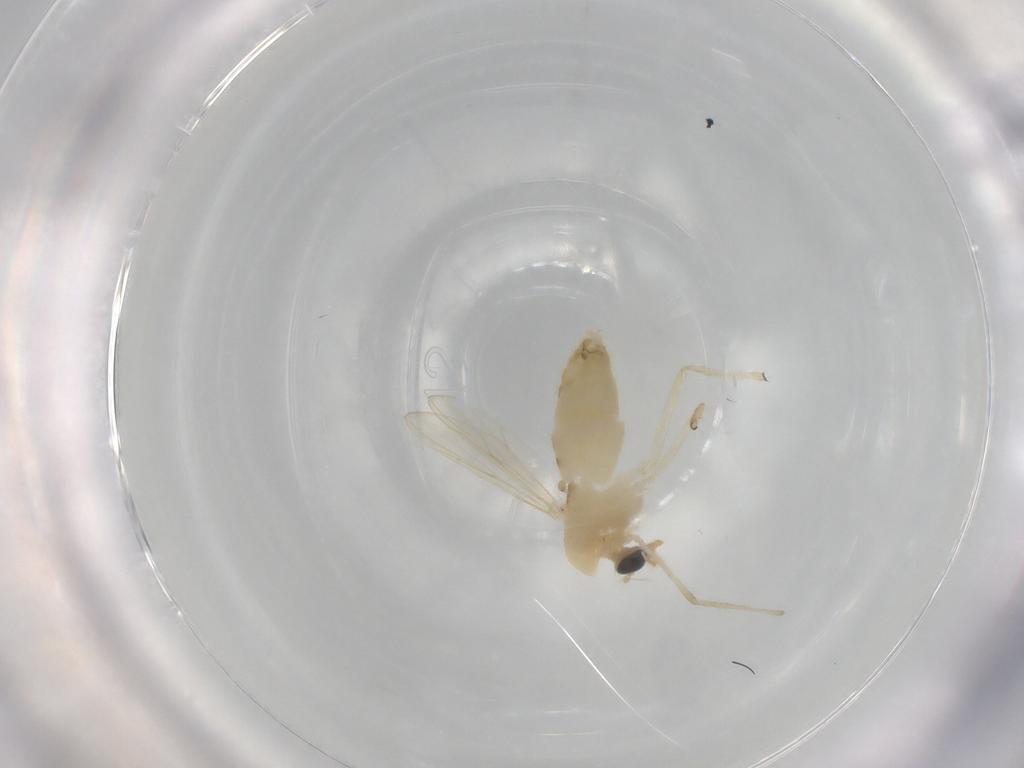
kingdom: Animalia
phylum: Arthropoda
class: Insecta
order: Diptera
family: Chironomidae
